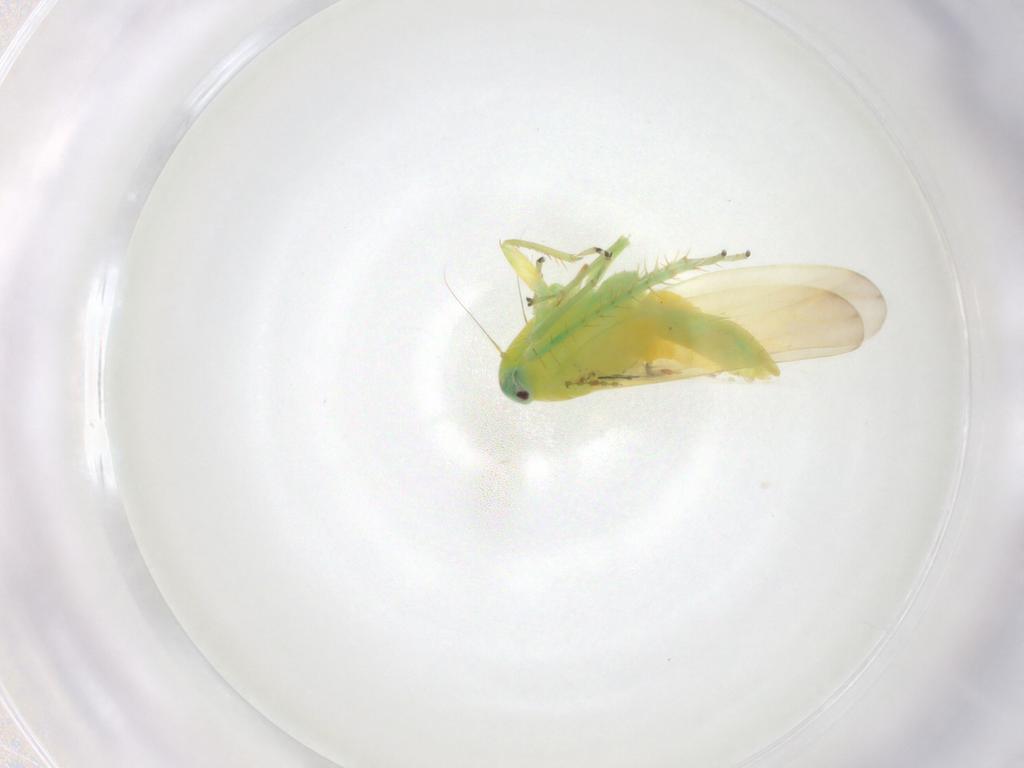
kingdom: Animalia
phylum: Arthropoda
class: Insecta
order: Hemiptera
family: Cicadellidae
